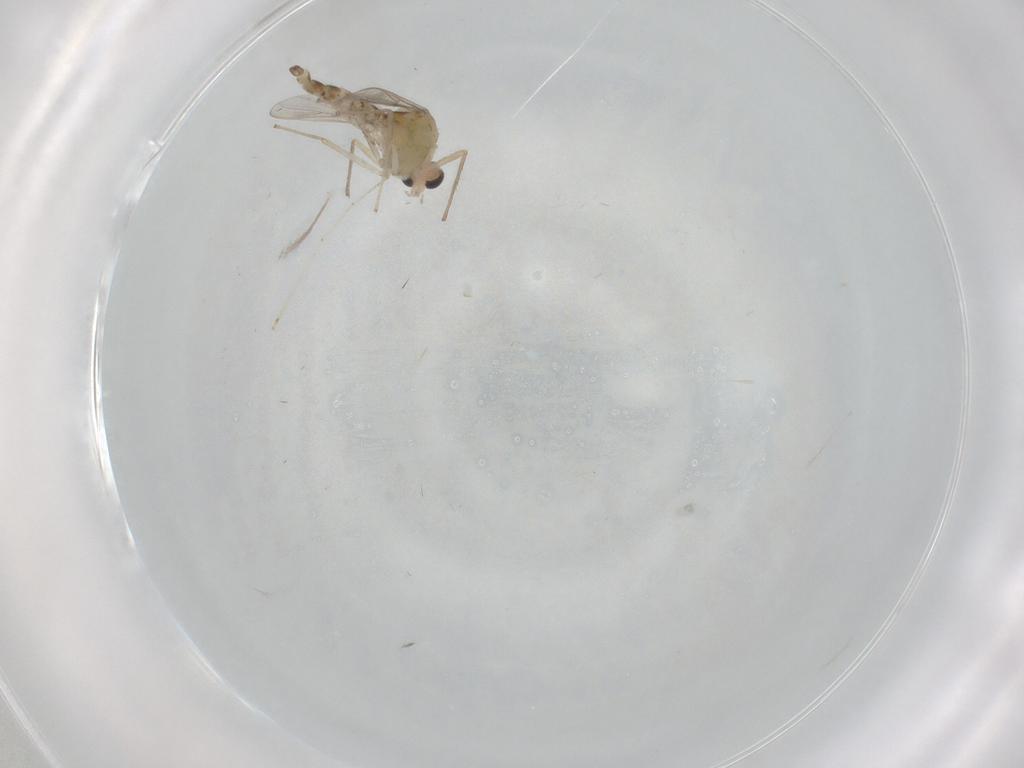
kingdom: Animalia
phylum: Arthropoda
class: Insecta
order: Diptera
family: Cecidomyiidae
